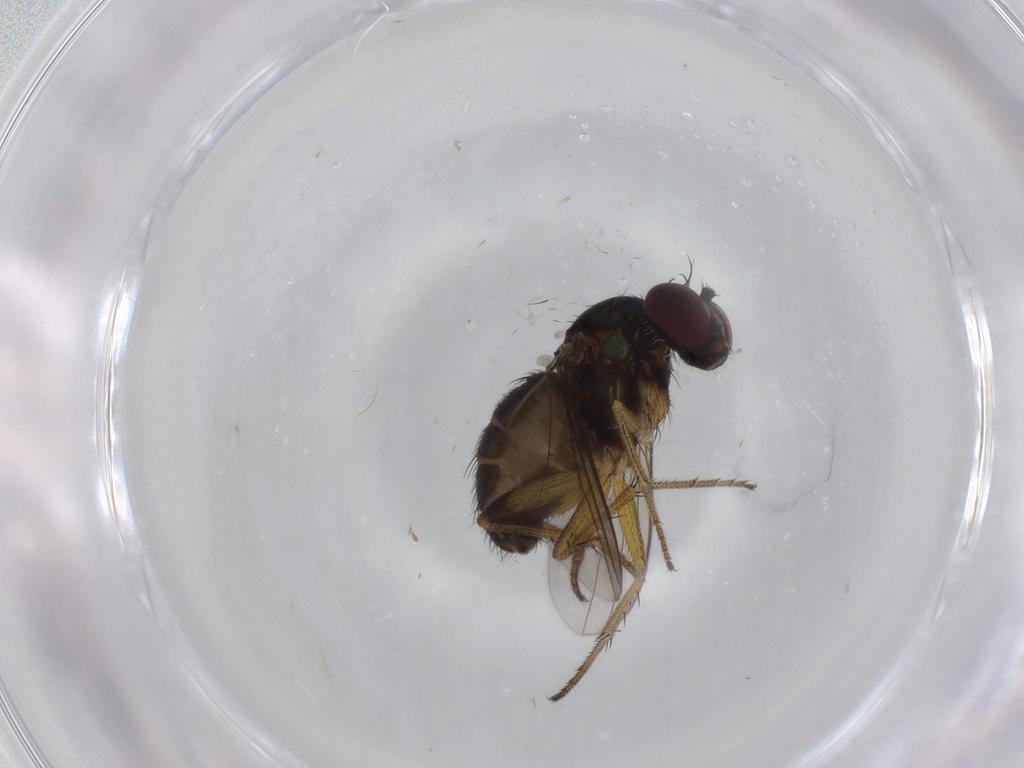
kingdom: Animalia
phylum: Arthropoda
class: Insecta
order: Diptera
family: Dolichopodidae
